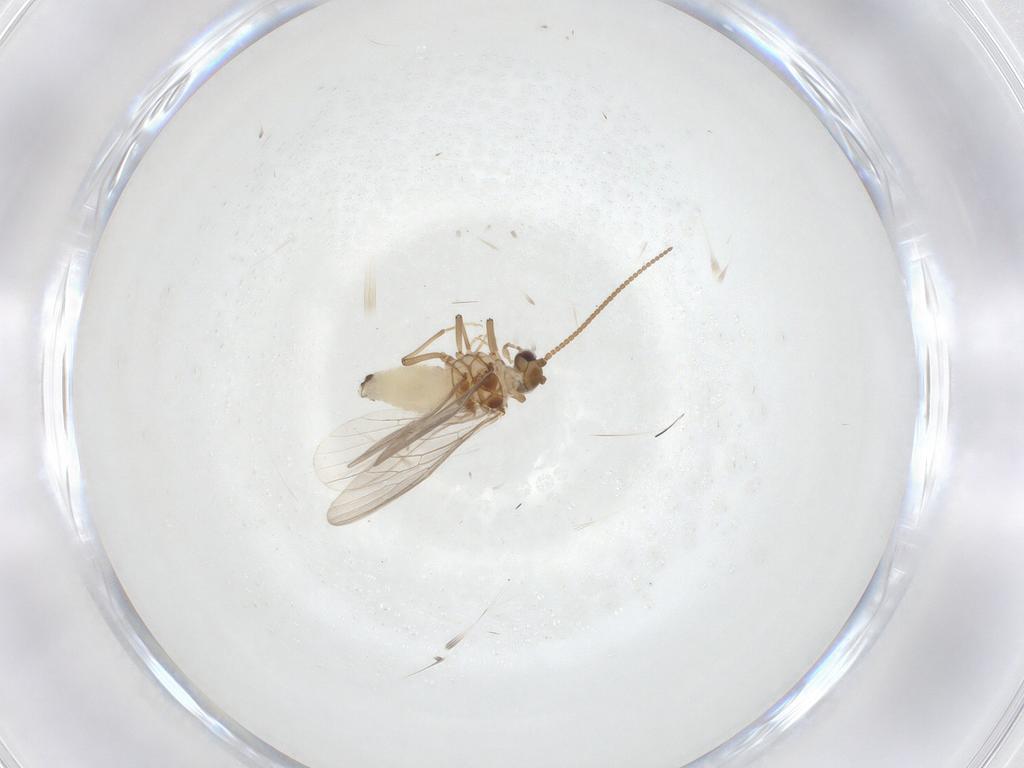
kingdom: Animalia
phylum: Arthropoda
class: Insecta
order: Neuroptera
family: Coniopterygidae
